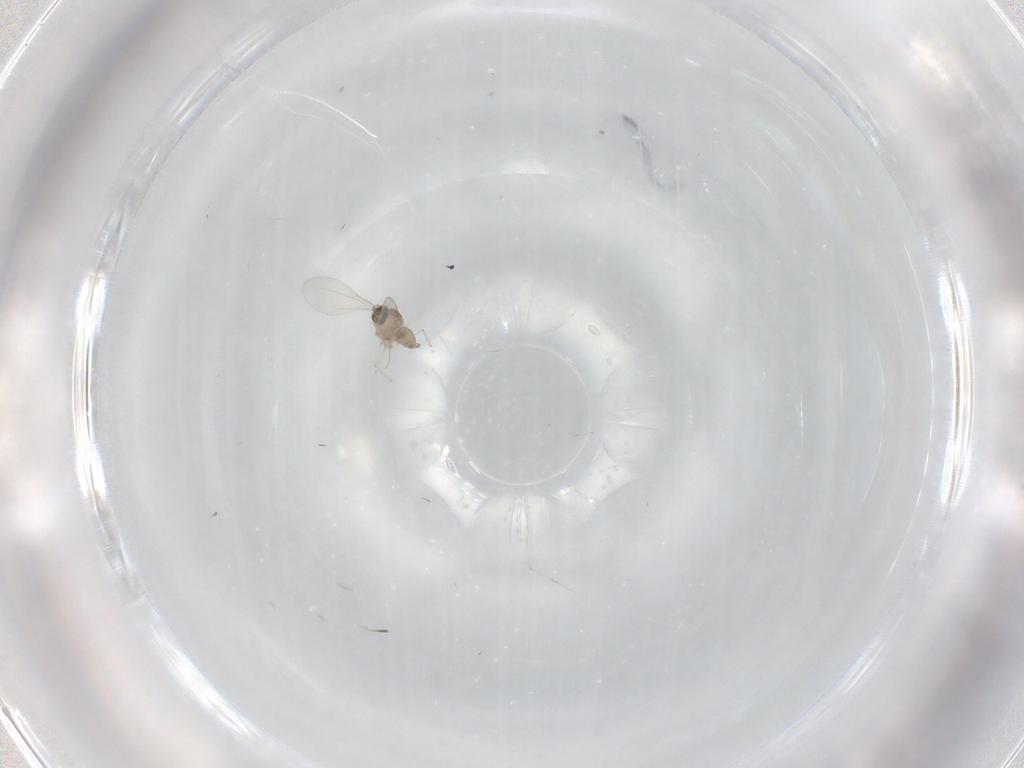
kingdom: Animalia
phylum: Arthropoda
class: Insecta
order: Diptera
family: Cecidomyiidae
